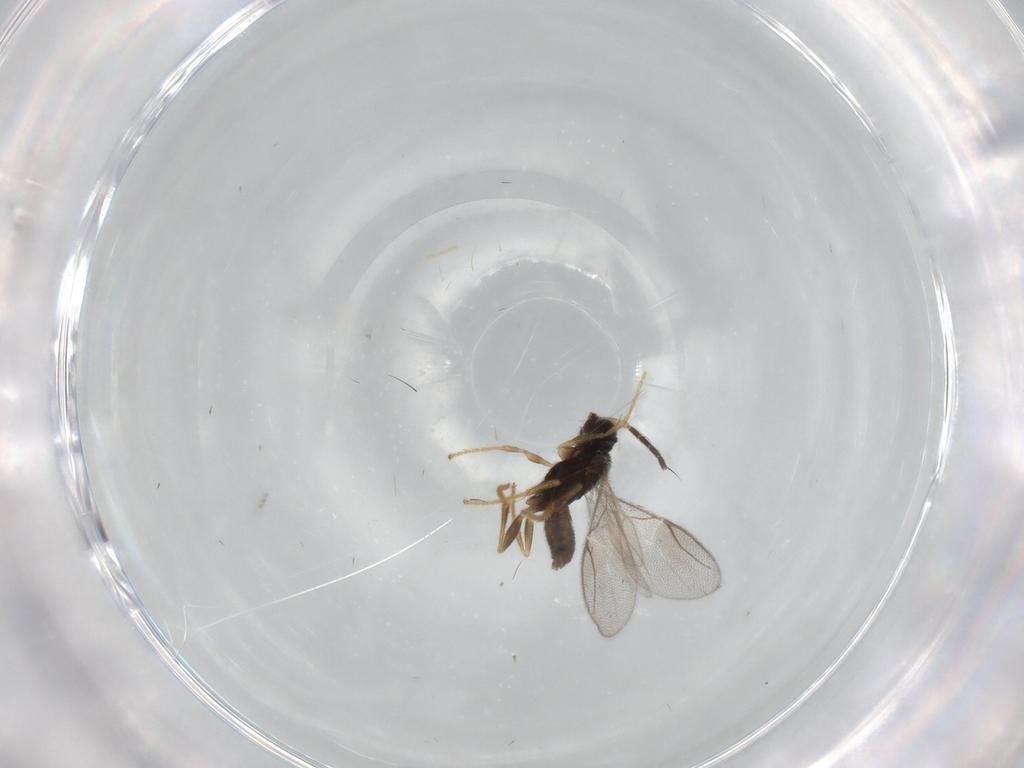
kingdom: Animalia
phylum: Arthropoda
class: Insecta
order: Hymenoptera
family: Dryinidae
